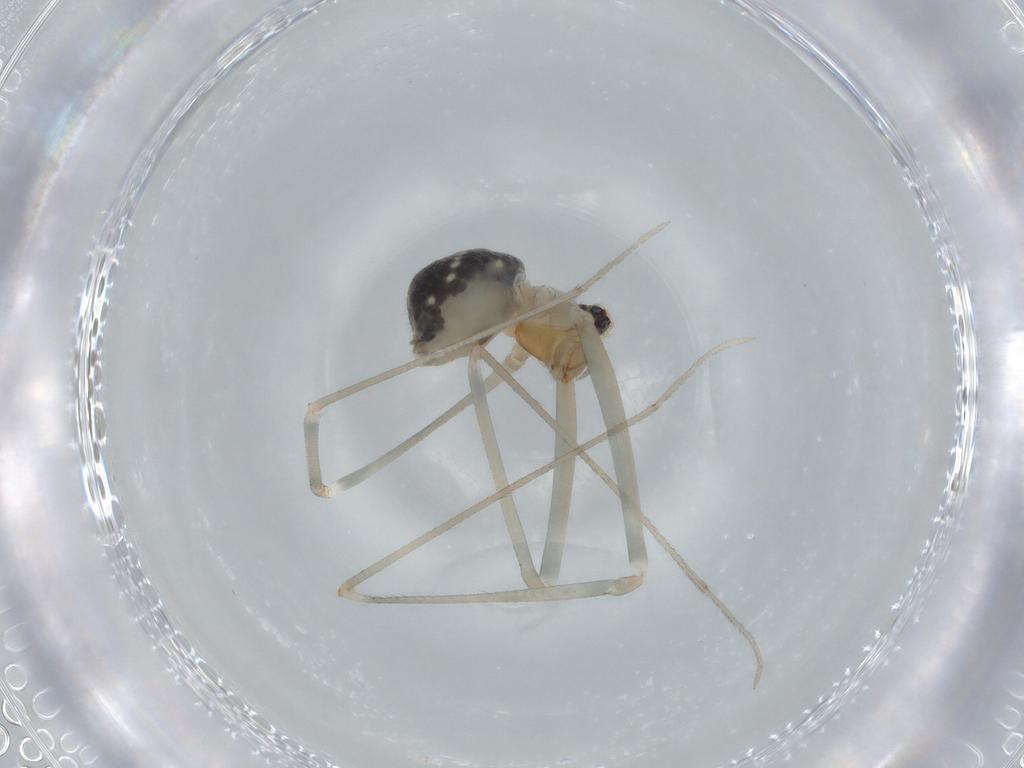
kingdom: Animalia
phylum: Arthropoda
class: Arachnida
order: Araneae
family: Pholcidae
